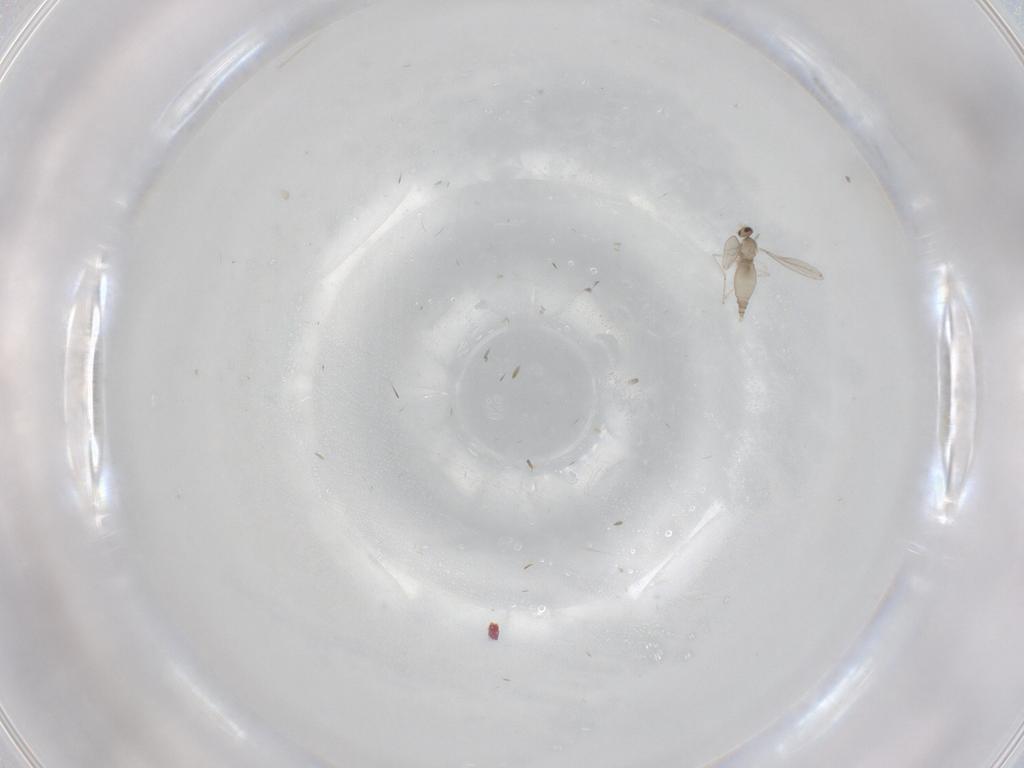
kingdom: Animalia
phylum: Arthropoda
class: Insecta
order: Diptera
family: Cecidomyiidae
